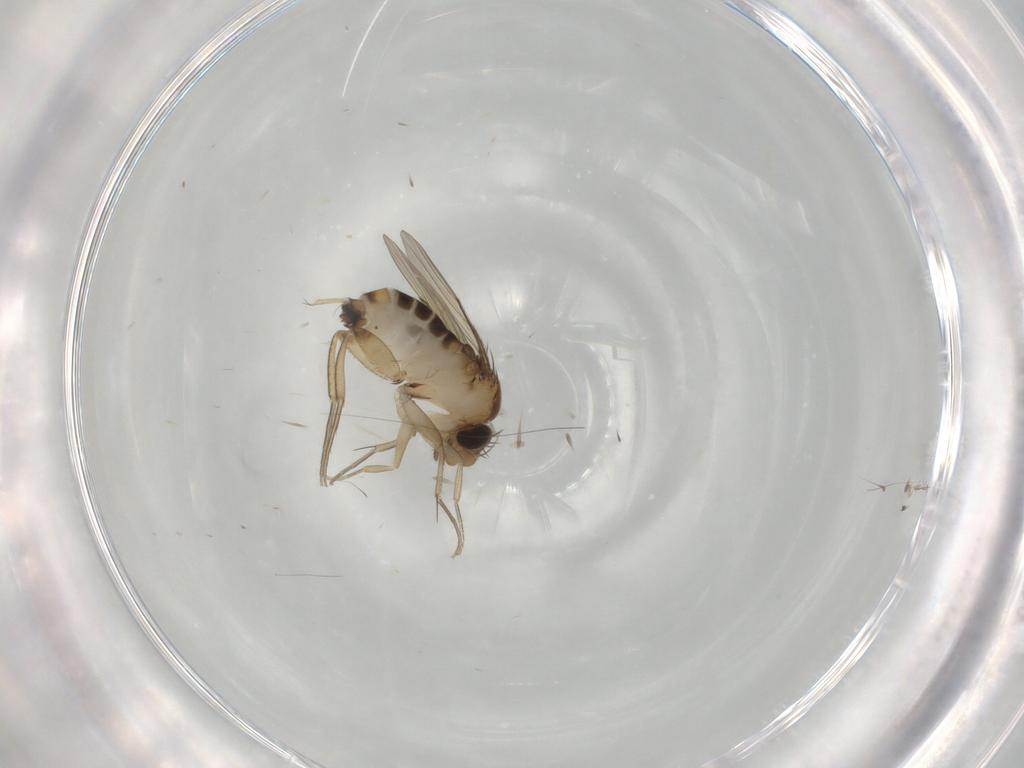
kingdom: Animalia
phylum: Arthropoda
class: Insecta
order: Diptera
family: Phoridae
